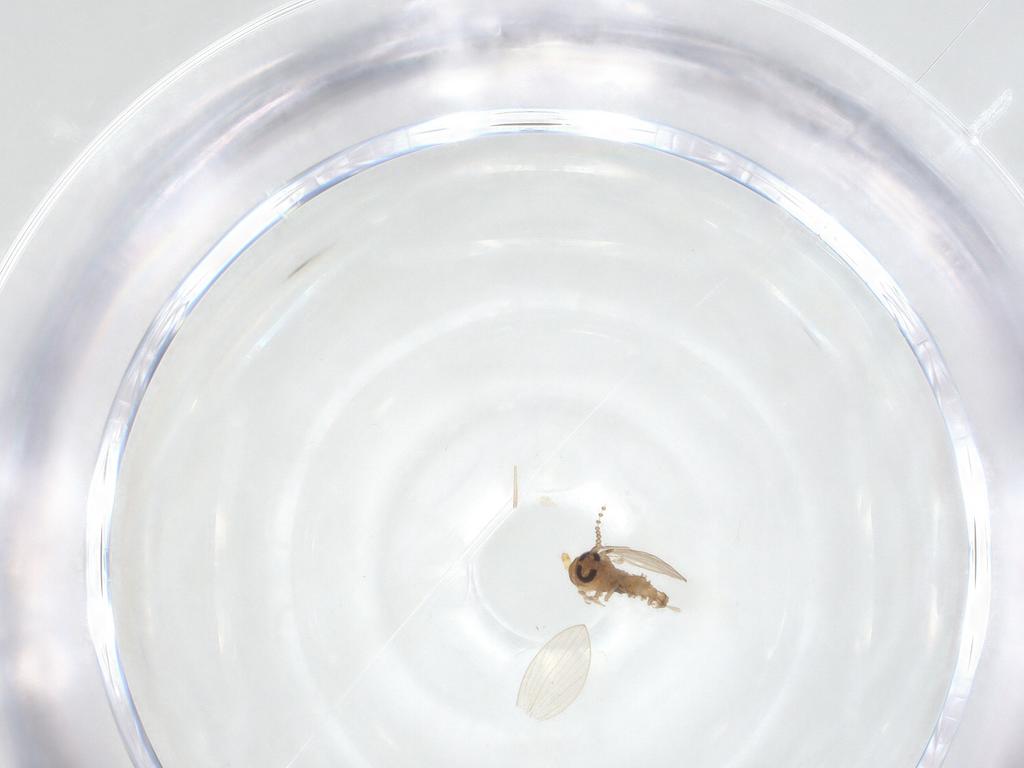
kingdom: Animalia
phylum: Arthropoda
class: Insecta
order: Diptera
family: Psychodidae
